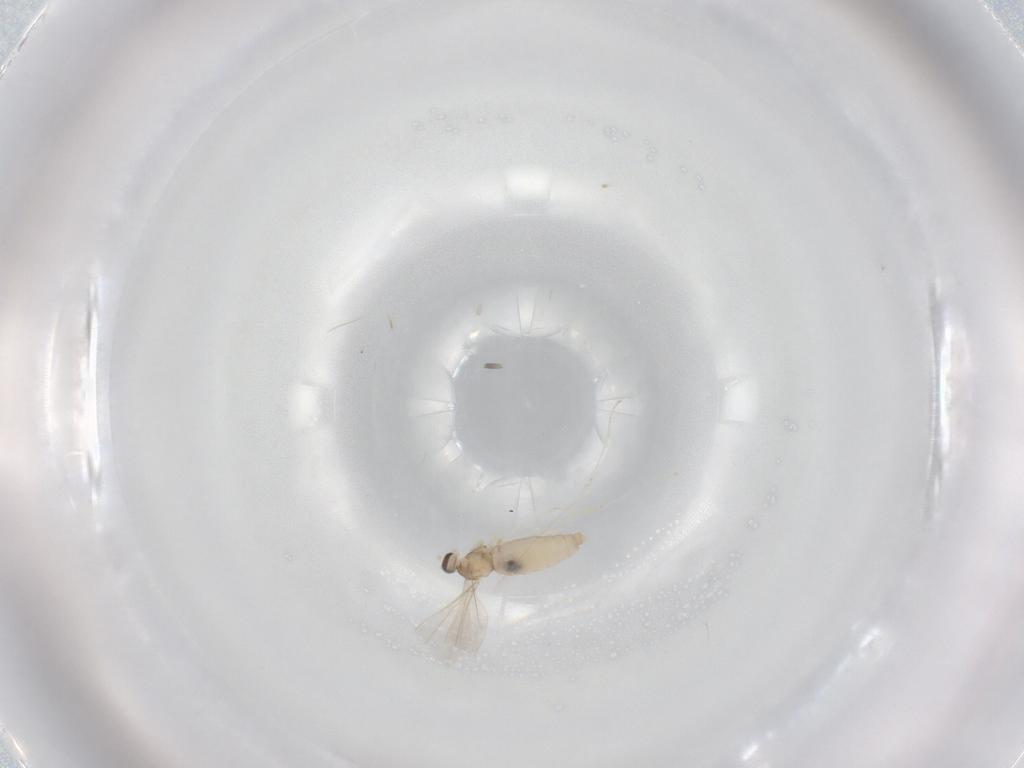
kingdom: Animalia
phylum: Arthropoda
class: Insecta
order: Diptera
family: Cecidomyiidae
